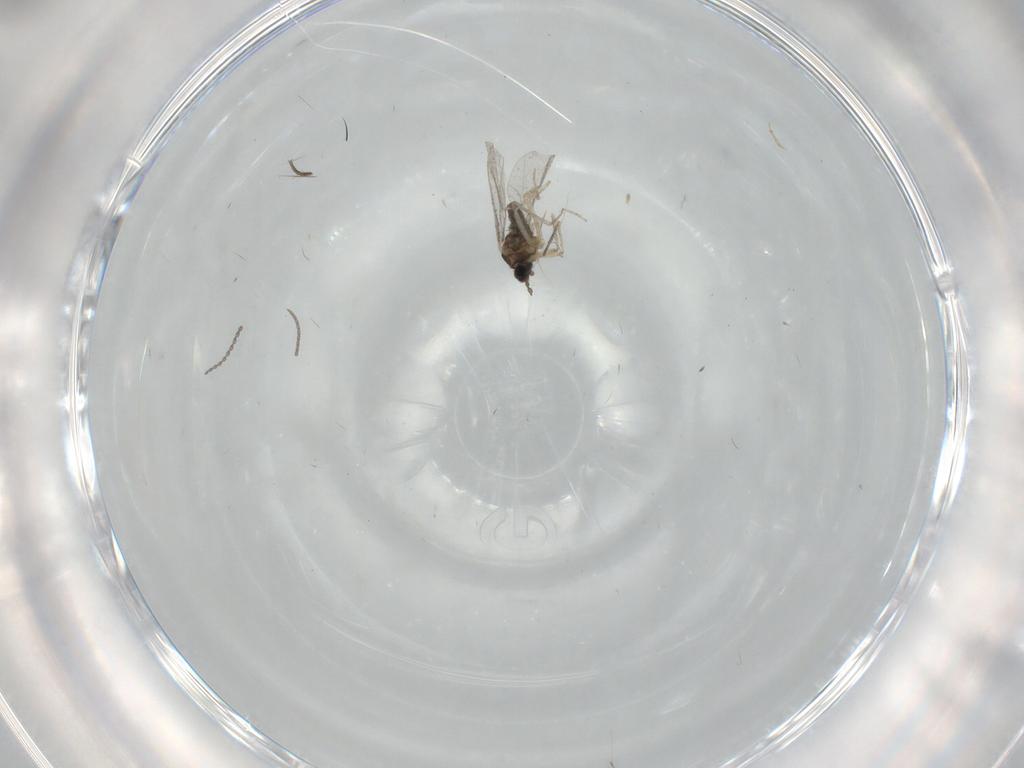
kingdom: Animalia
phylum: Arthropoda
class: Insecta
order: Diptera
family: Cecidomyiidae
